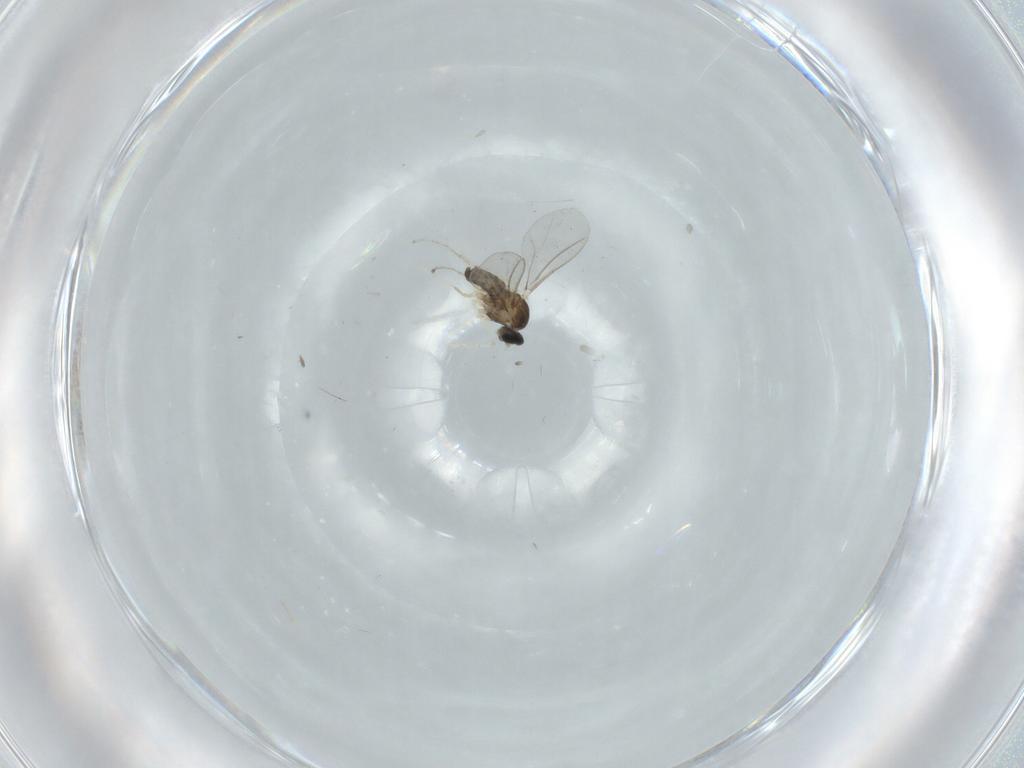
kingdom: Animalia
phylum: Arthropoda
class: Insecta
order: Diptera
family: Cecidomyiidae
